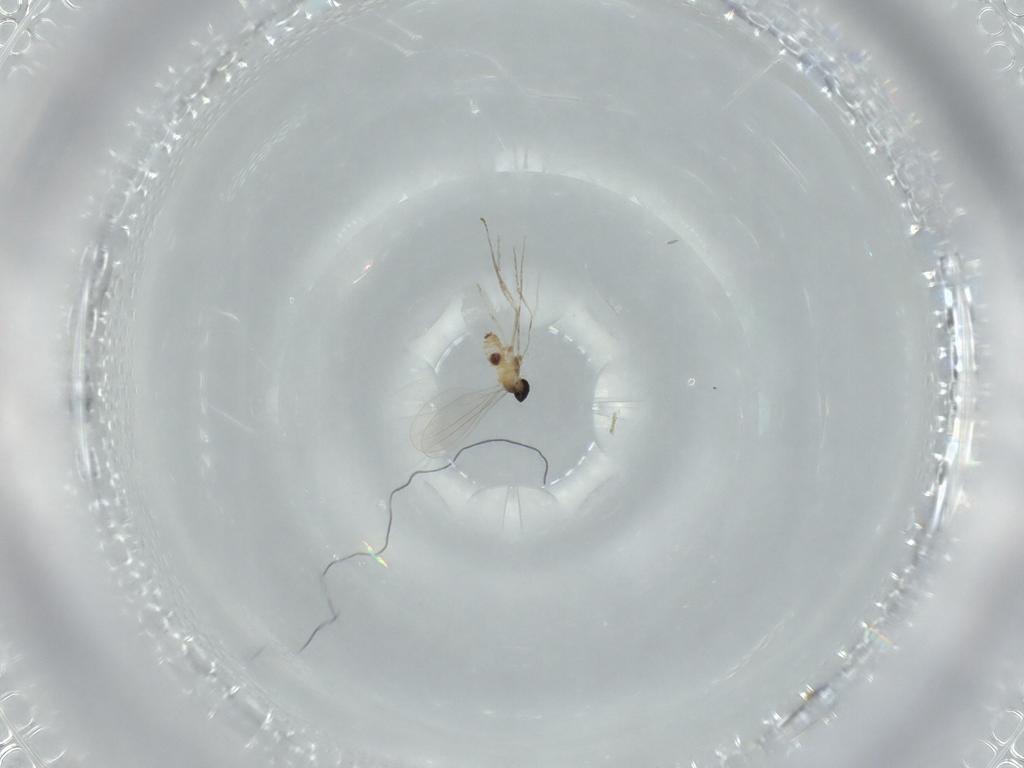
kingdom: Animalia
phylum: Arthropoda
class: Insecta
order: Diptera
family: Cecidomyiidae
